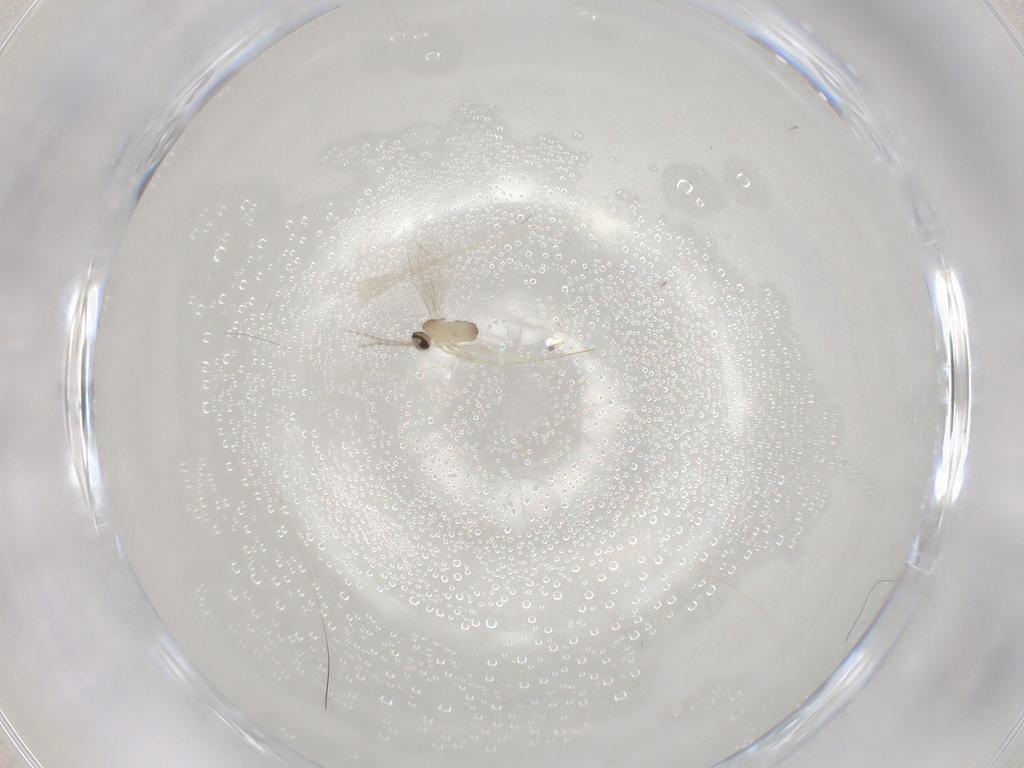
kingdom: Animalia
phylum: Arthropoda
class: Insecta
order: Diptera
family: Cecidomyiidae
